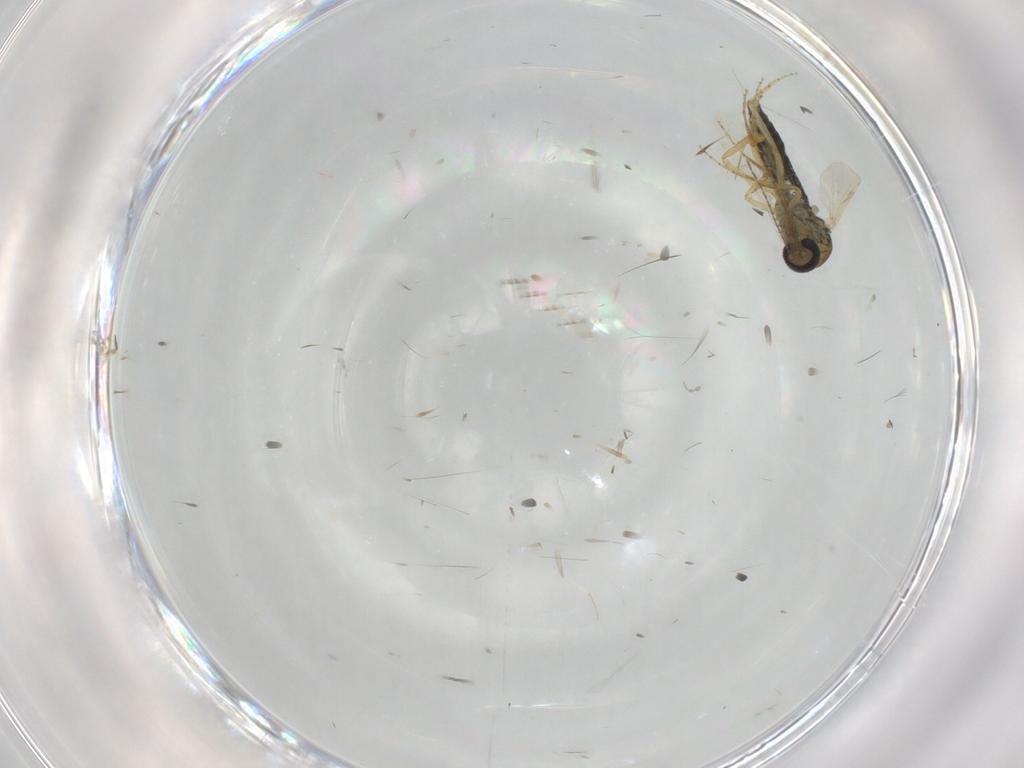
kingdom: Animalia
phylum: Arthropoda
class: Insecta
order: Diptera
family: Ceratopogonidae
